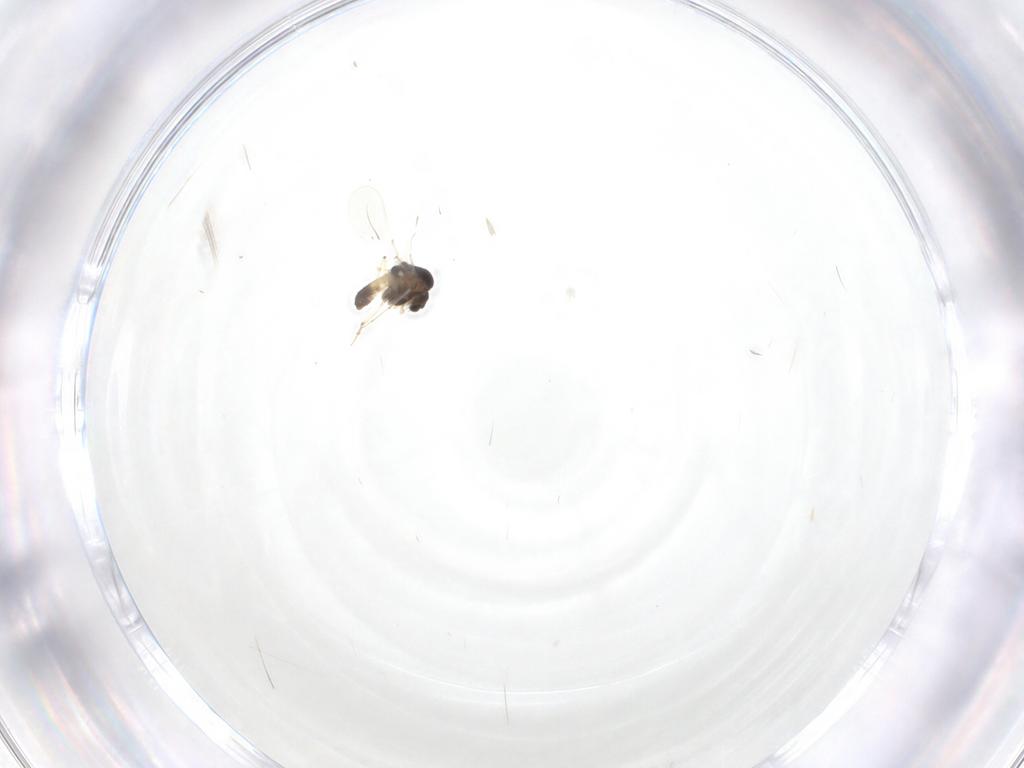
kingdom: Animalia
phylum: Arthropoda
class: Insecta
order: Diptera
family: Chironomidae
